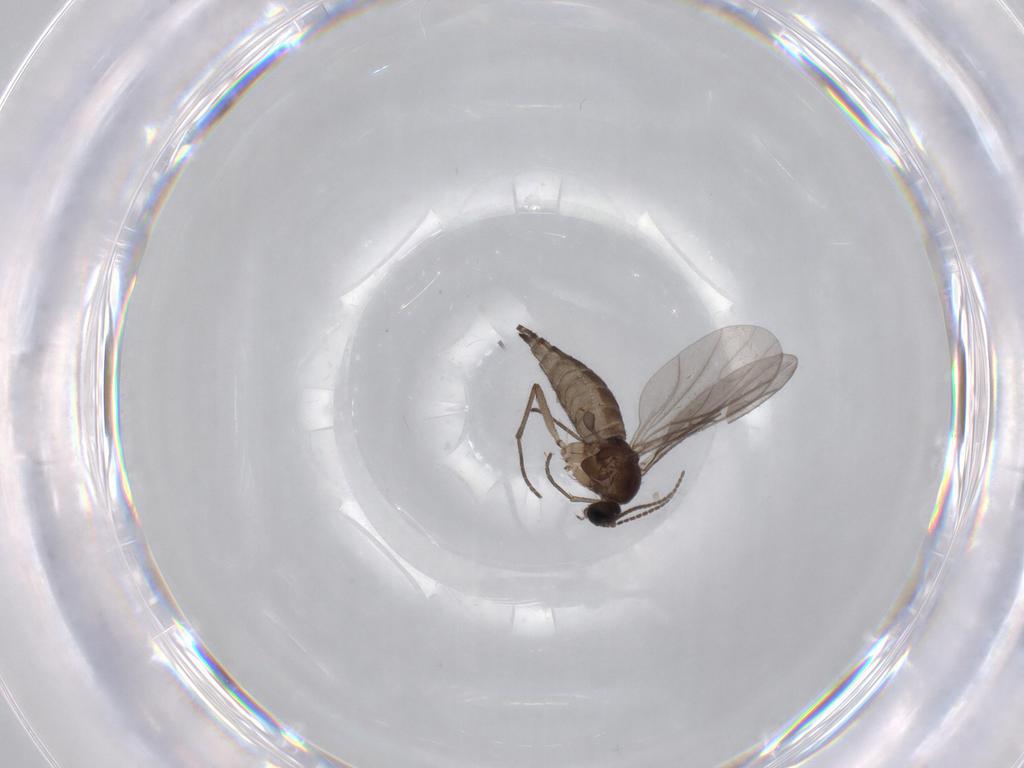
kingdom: Animalia
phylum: Arthropoda
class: Insecta
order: Diptera
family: Sciaridae
